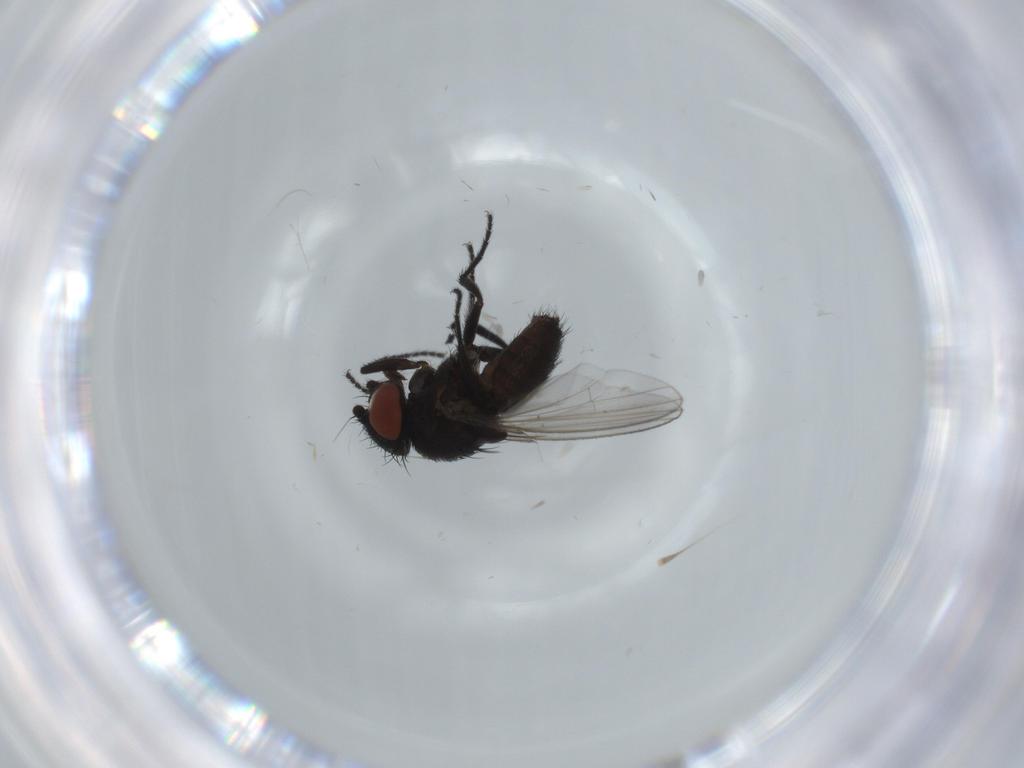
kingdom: Animalia
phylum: Arthropoda
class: Insecta
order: Diptera
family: Milichiidae
